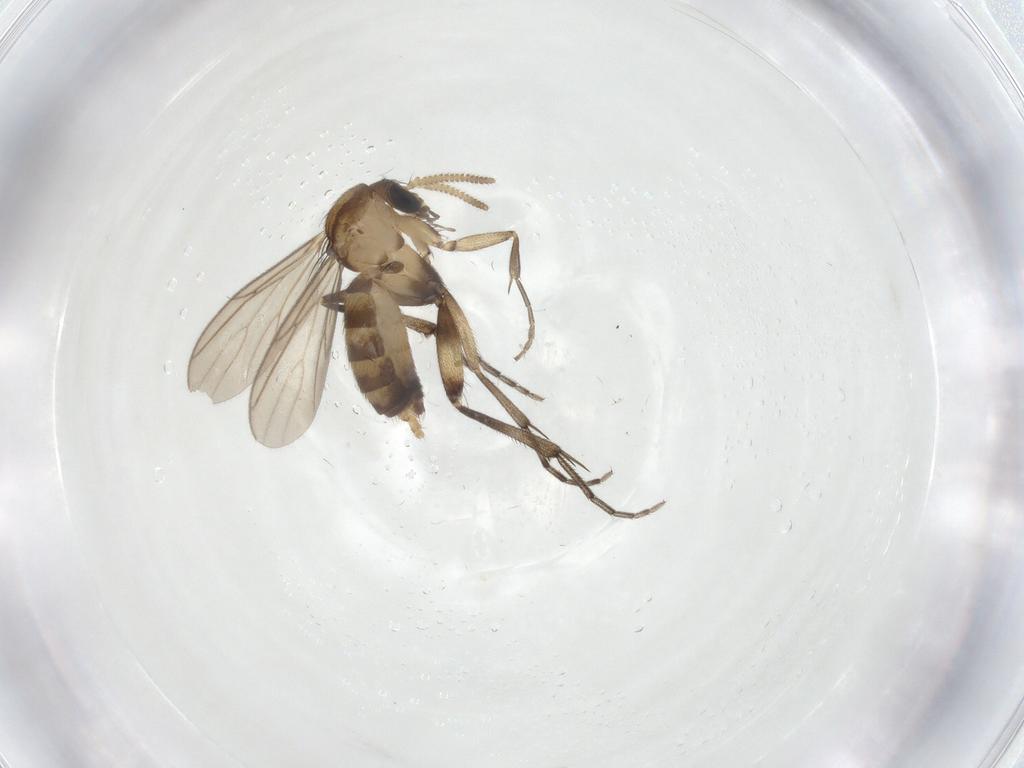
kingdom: Animalia
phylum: Arthropoda
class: Insecta
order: Diptera
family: Mycetophilidae
